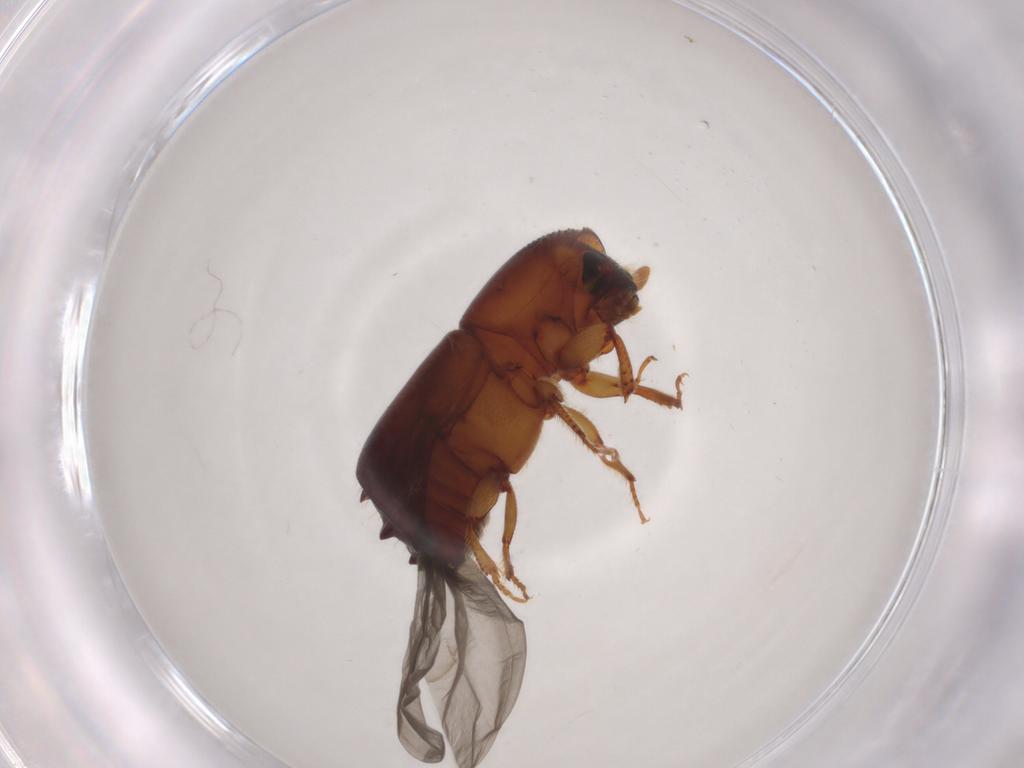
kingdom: Animalia
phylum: Arthropoda
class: Insecta
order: Coleoptera
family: Curculionidae
